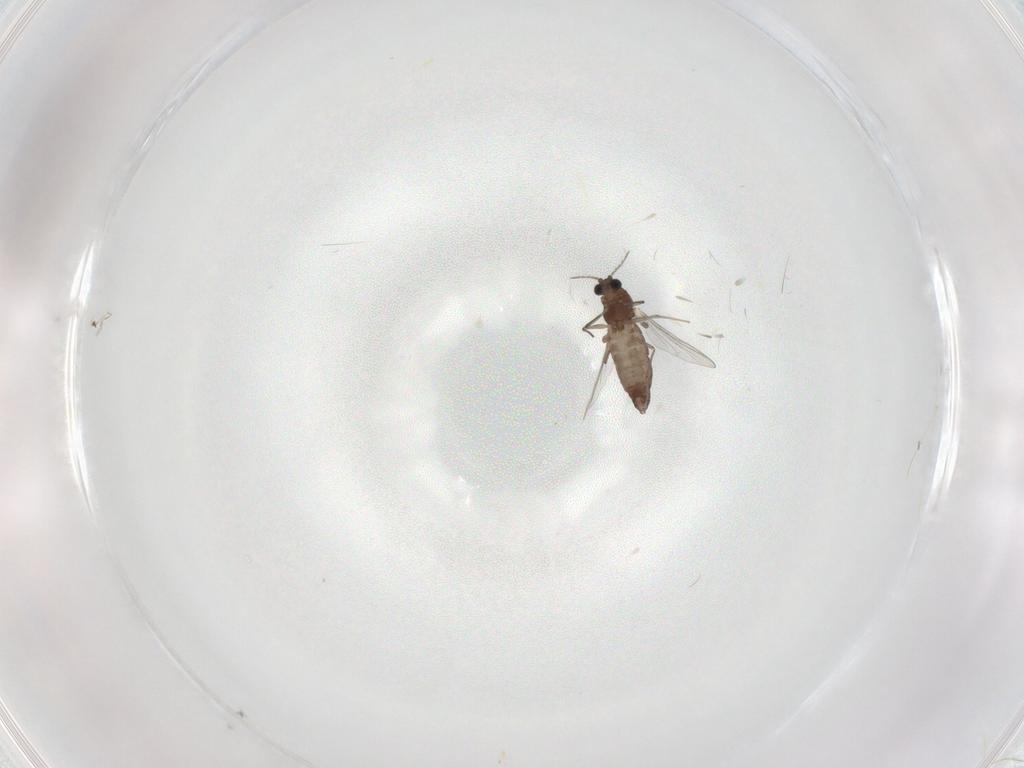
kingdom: Animalia
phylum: Arthropoda
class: Insecta
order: Diptera
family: Chironomidae
